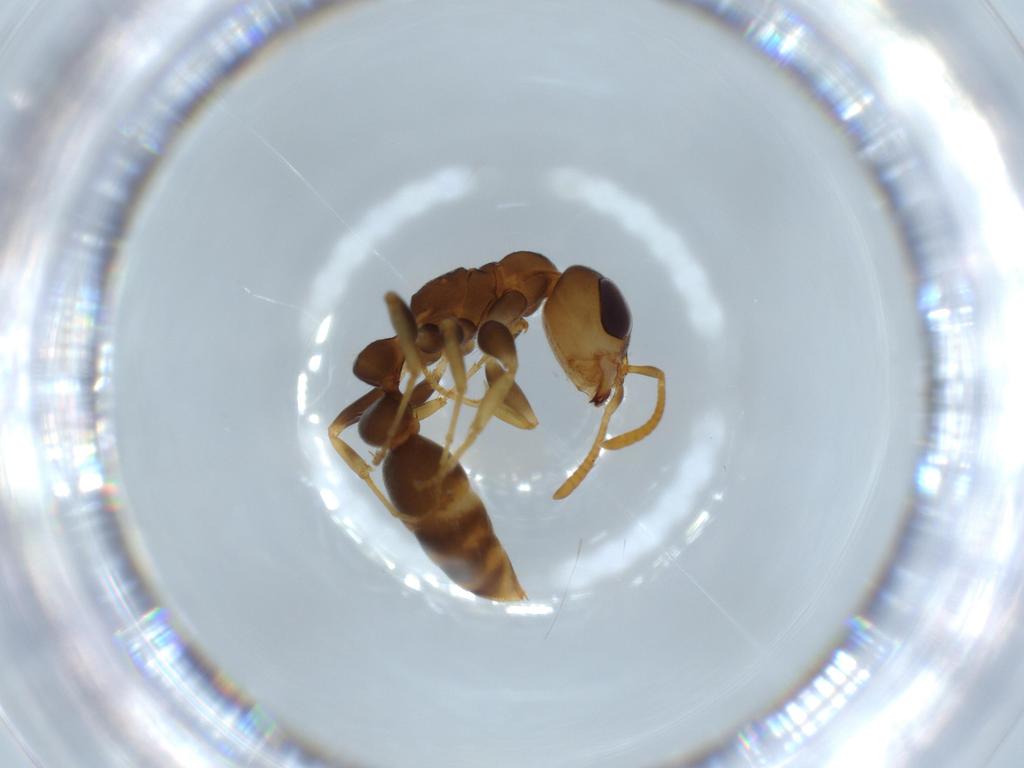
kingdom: Animalia
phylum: Arthropoda
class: Insecta
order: Hymenoptera
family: Formicidae
